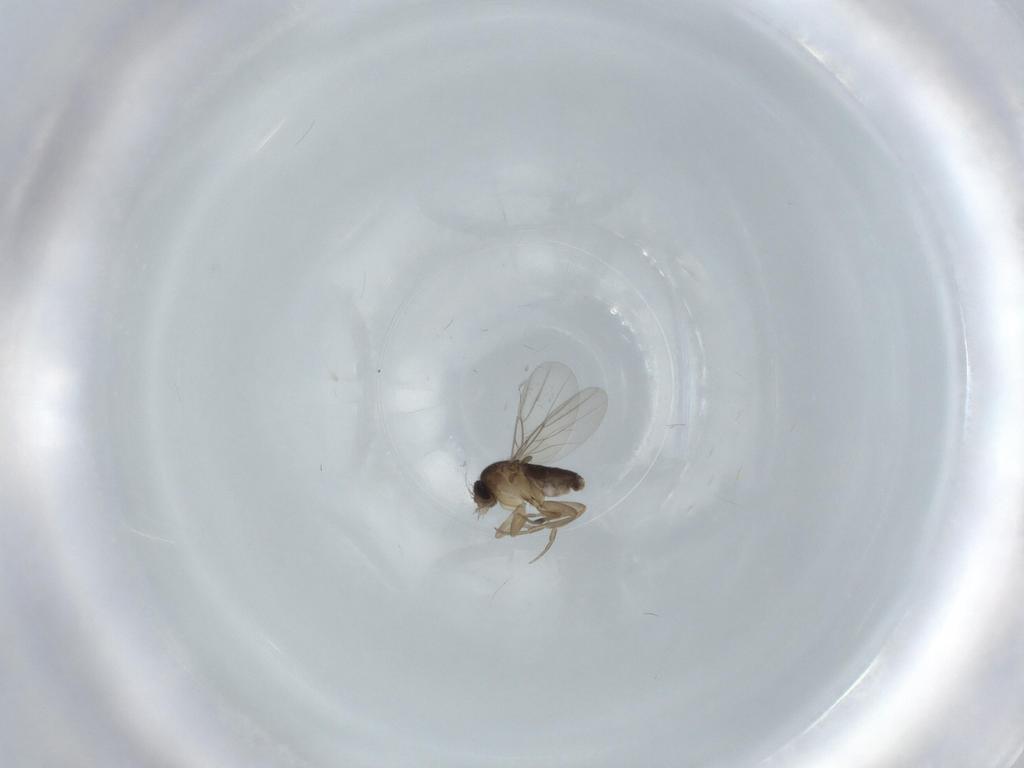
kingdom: Animalia
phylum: Arthropoda
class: Insecta
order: Diptera
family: Phoridae
